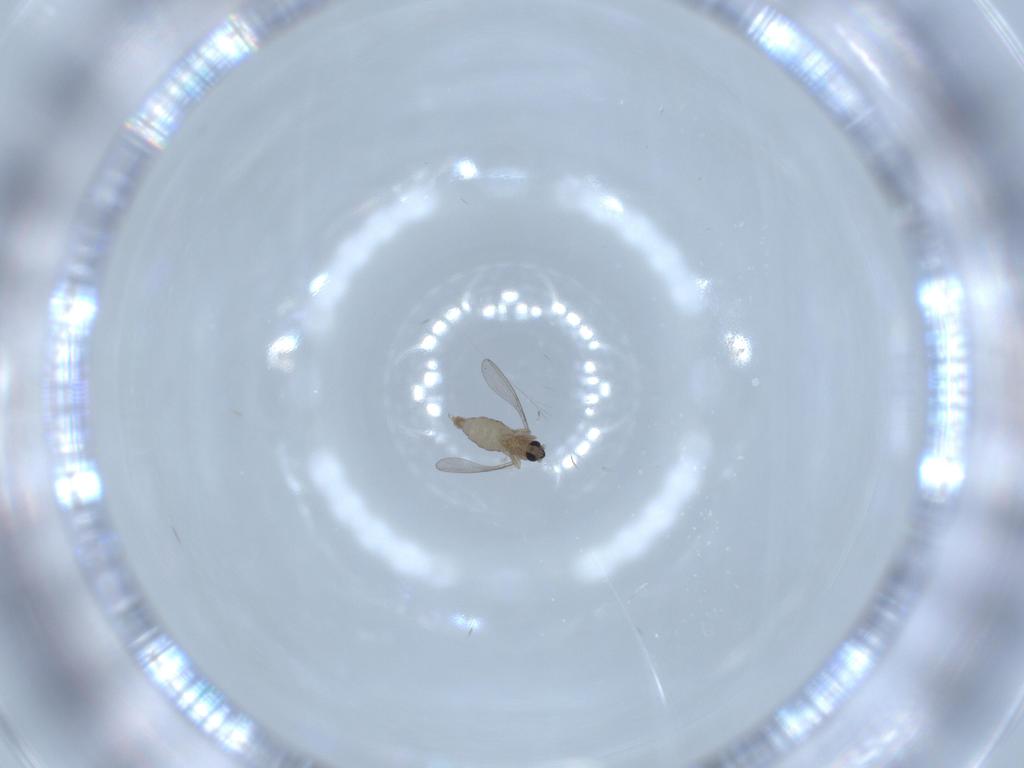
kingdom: Animalia
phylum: Arthropoda
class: Insecta
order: Diptera
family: Cecidomyiidae
